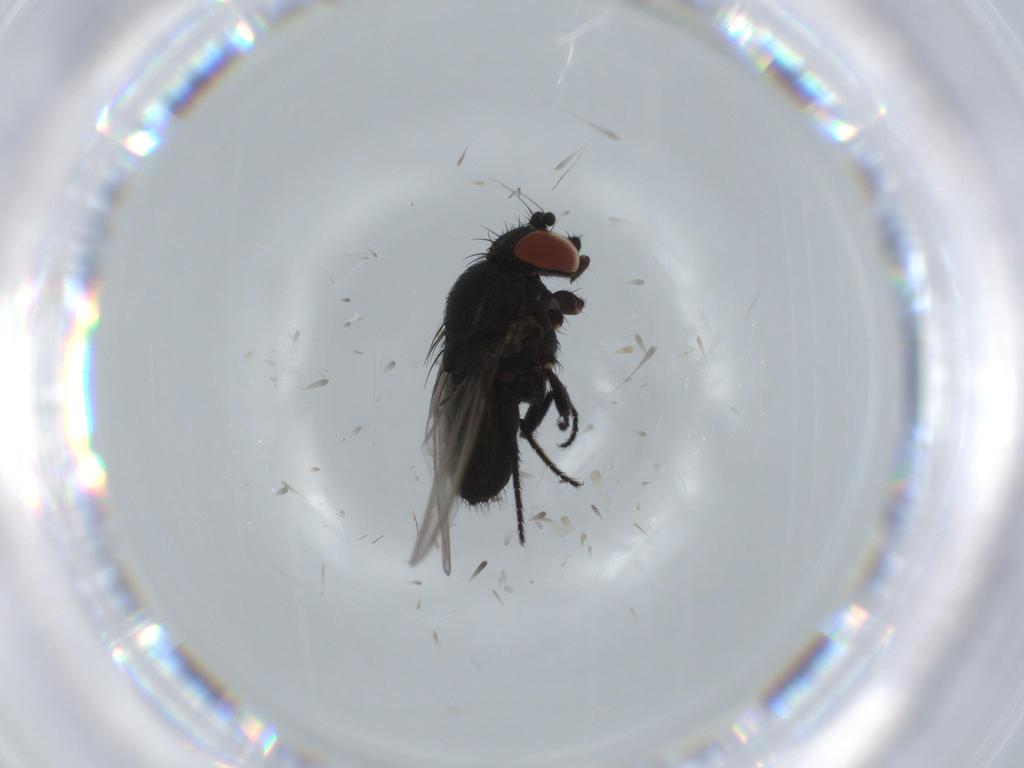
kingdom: Animalia
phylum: Arthropoda
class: Insecta
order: Diptera
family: Milichiidae
